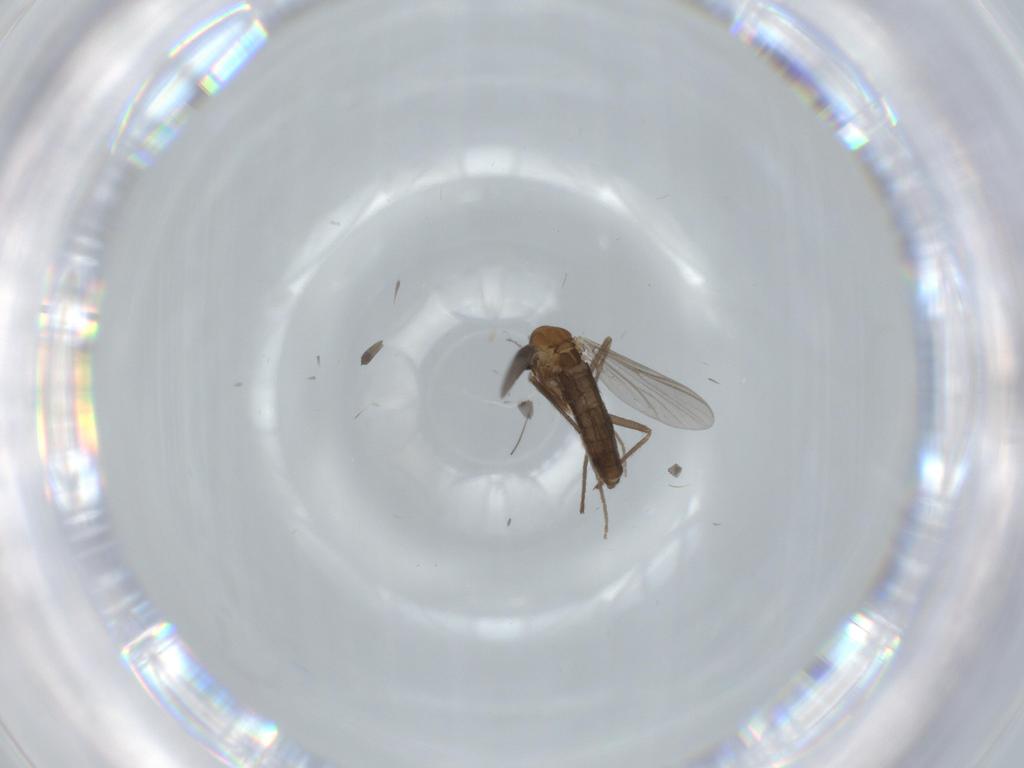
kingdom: Animalia
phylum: Arthropoda
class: Insecta
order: Diptera
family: Chironomidae
